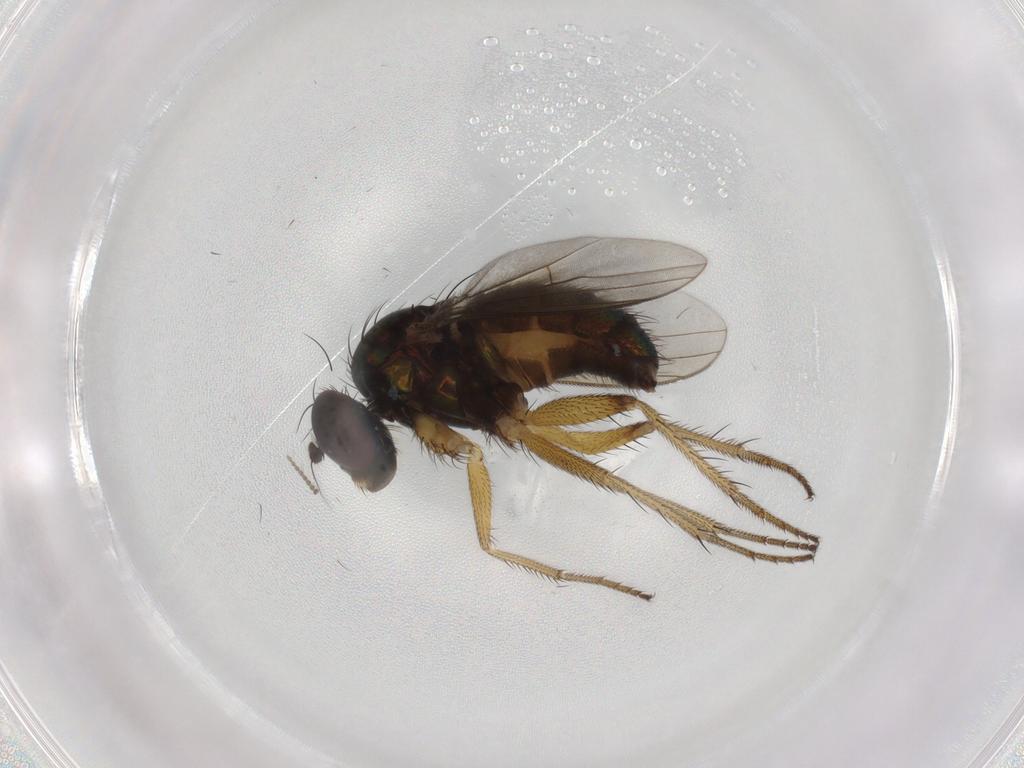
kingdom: Animalia
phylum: Arthropoda
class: Insecta
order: Diptera
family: Dolichopodidae
